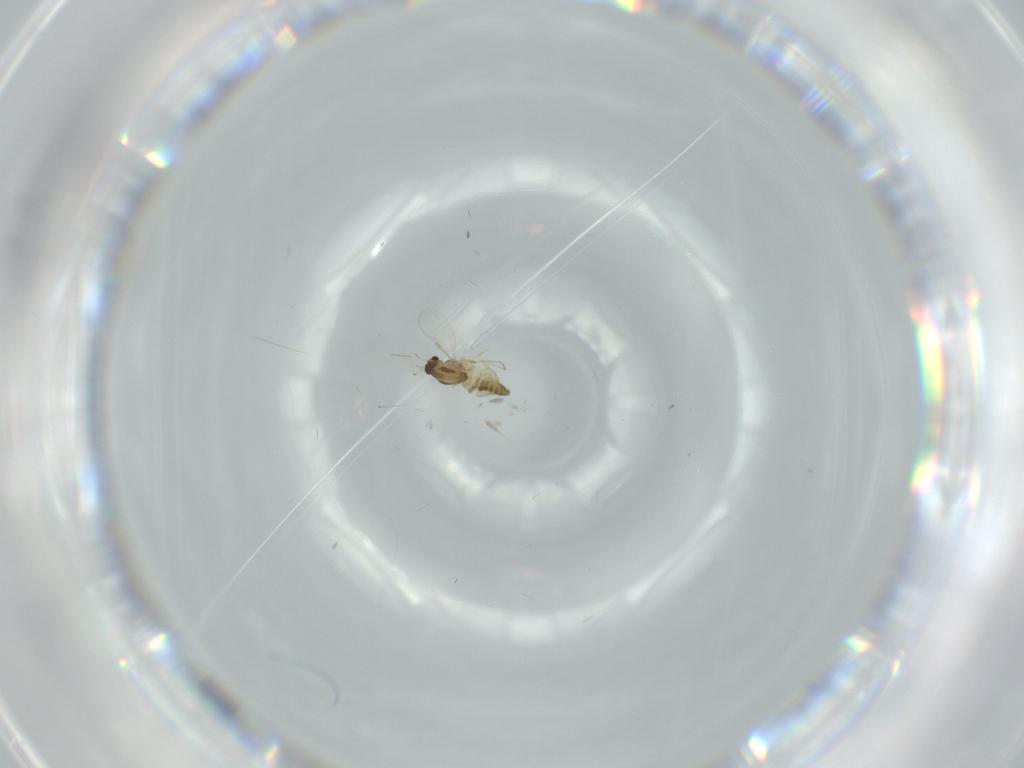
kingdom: Animalia
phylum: Arthropoda
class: Insecta
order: Diptera
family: Chironomidae
